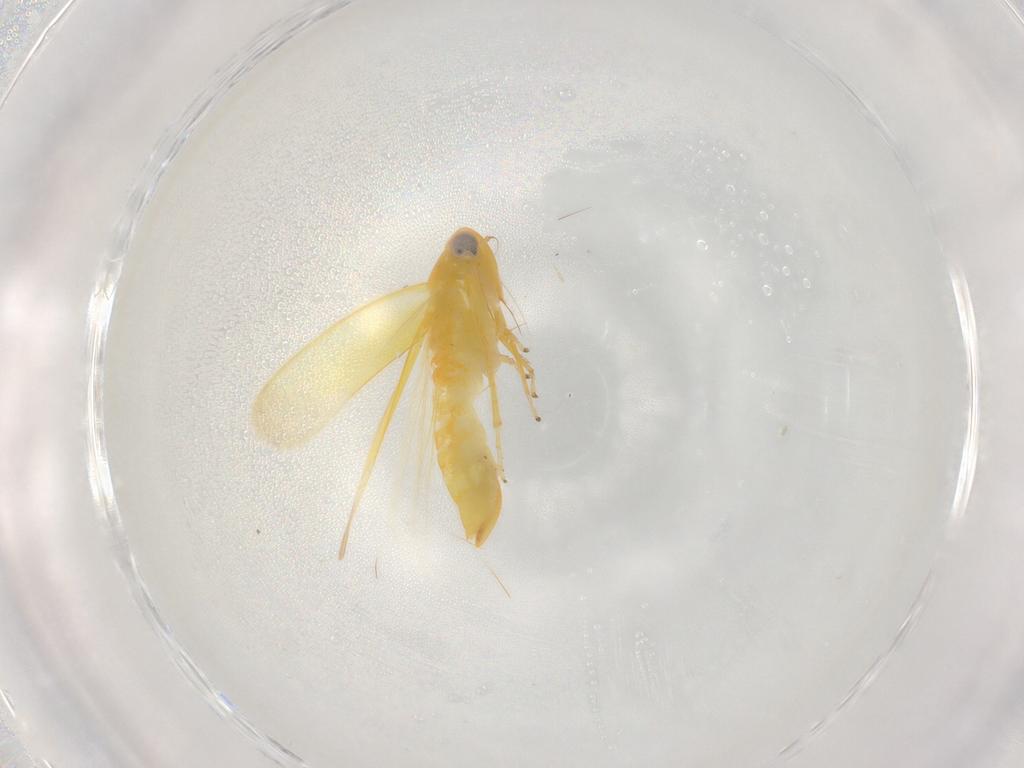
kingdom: Animalia
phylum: Arthropoda
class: Insecta
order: Hemiptera
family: Cicadellidae
